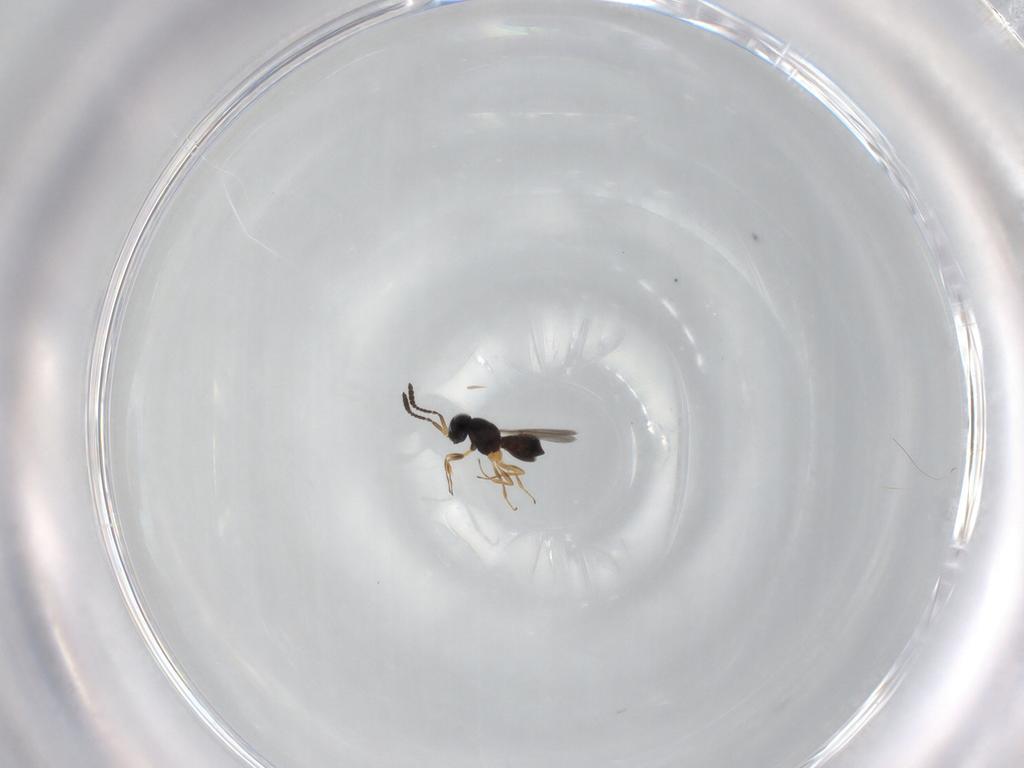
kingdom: Animalia
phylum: Arthropoda
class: Insecta
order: Hymenoptera
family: Scelionidae
